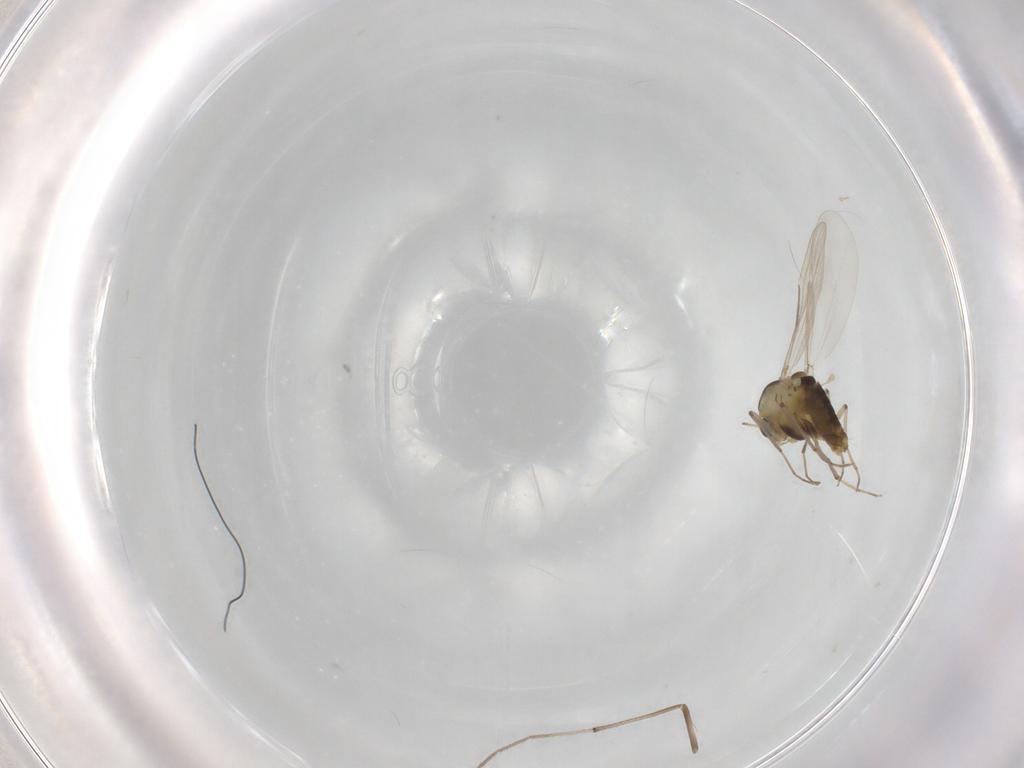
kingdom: Animalia
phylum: Arthropoda
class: Insecta
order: Diptera
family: Chironomidae
